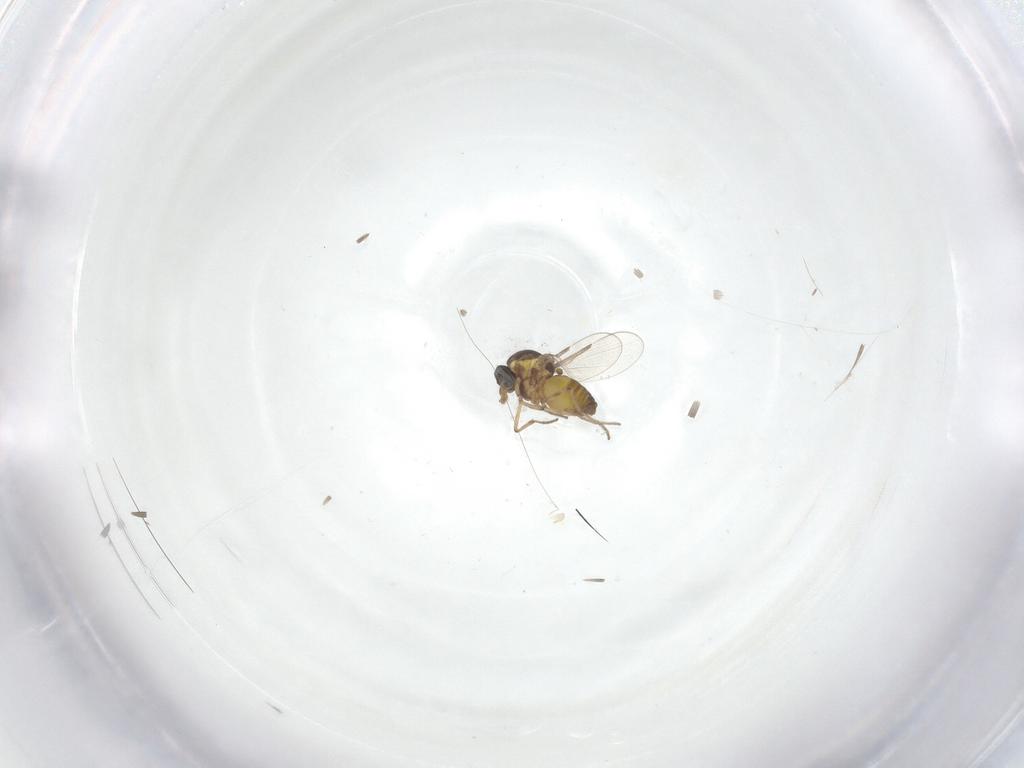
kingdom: Animalia
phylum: Arthropoda
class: Insecta
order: Diptera
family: Ceratopogonidae
